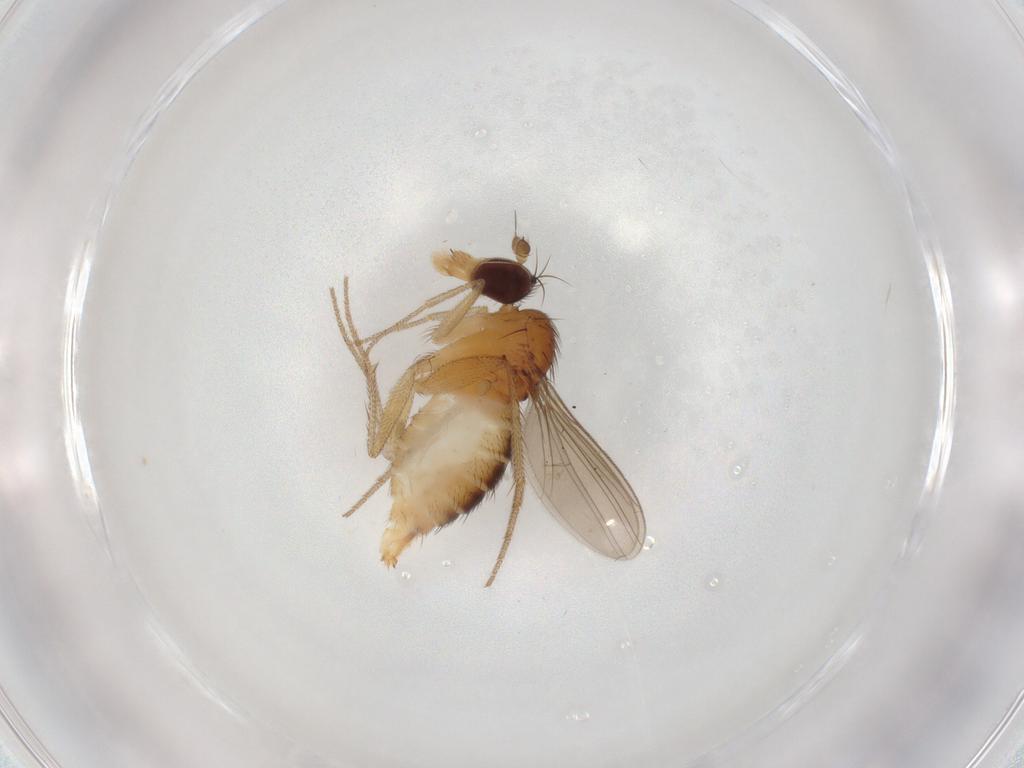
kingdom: Animalia
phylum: Arthropoda
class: Insecta
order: Diptera
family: Dolichopodidae
